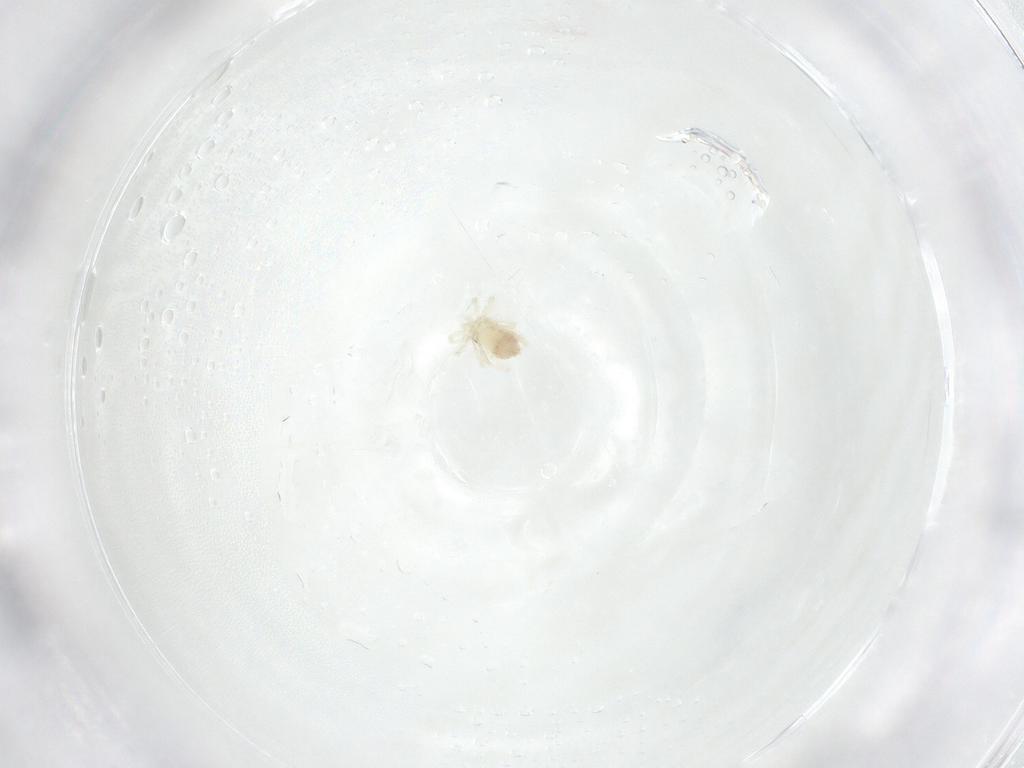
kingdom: Animalia
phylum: Arthropoda
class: Arachnida
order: Trombidiformes
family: Anystidae
